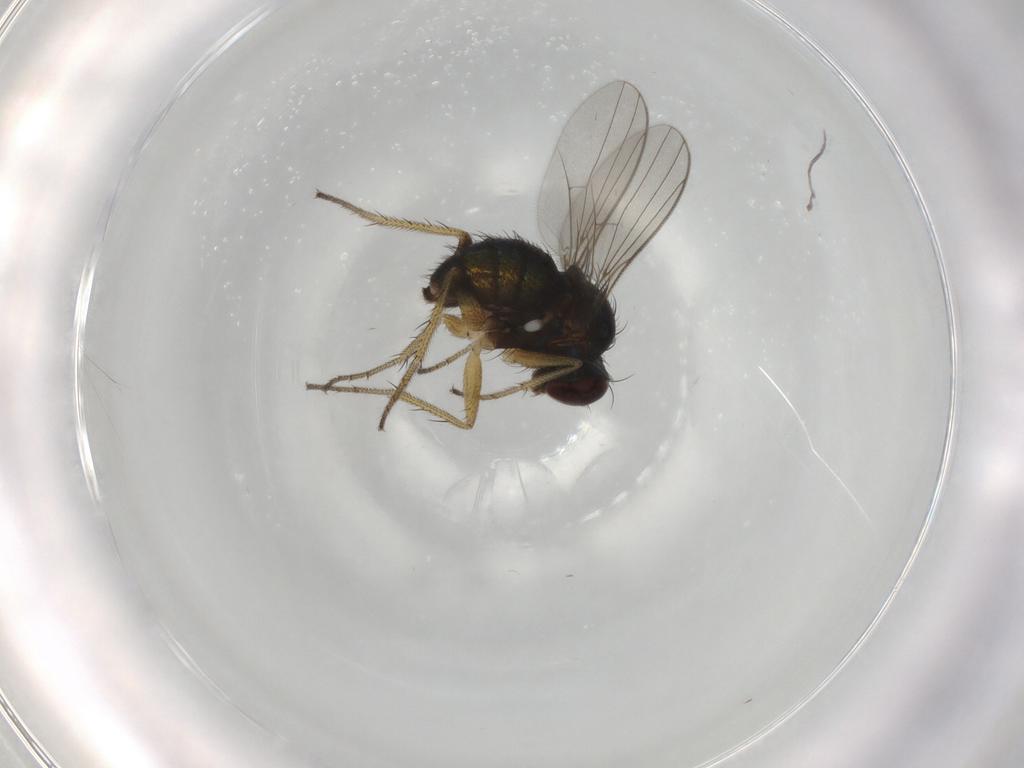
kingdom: Animalia
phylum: Arthropoda
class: Insecta
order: Diptera
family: Dolichopodidae
